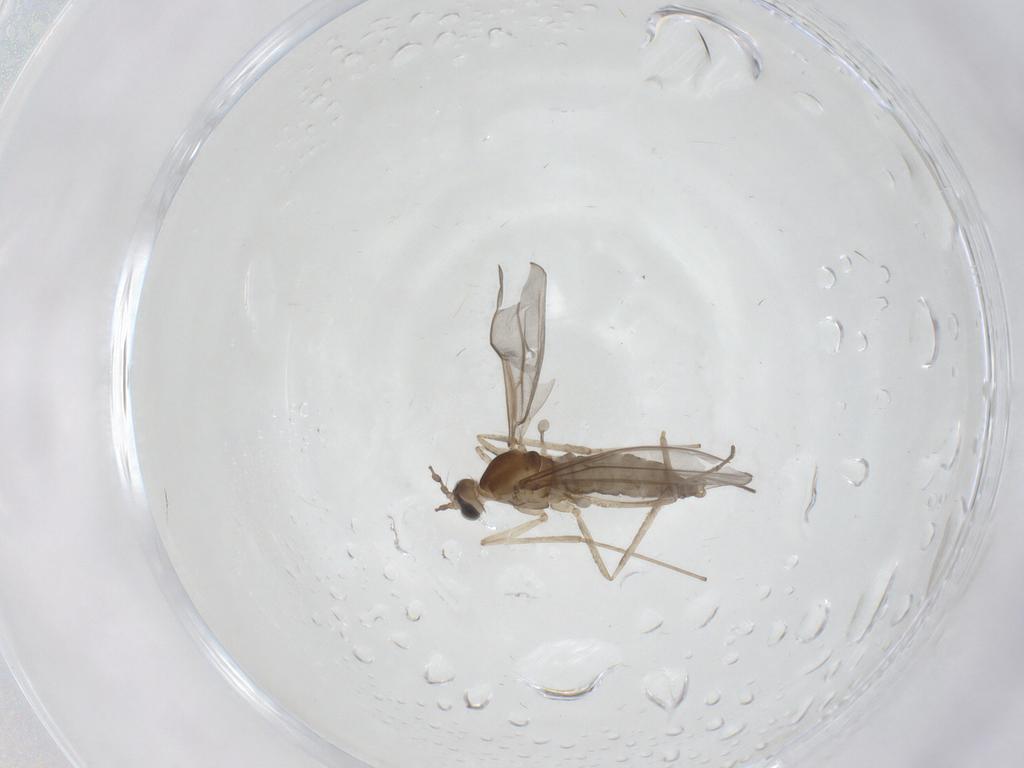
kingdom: Animalia
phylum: Arthropoda
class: Insecta
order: Diptera
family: Cecidomyiidae
